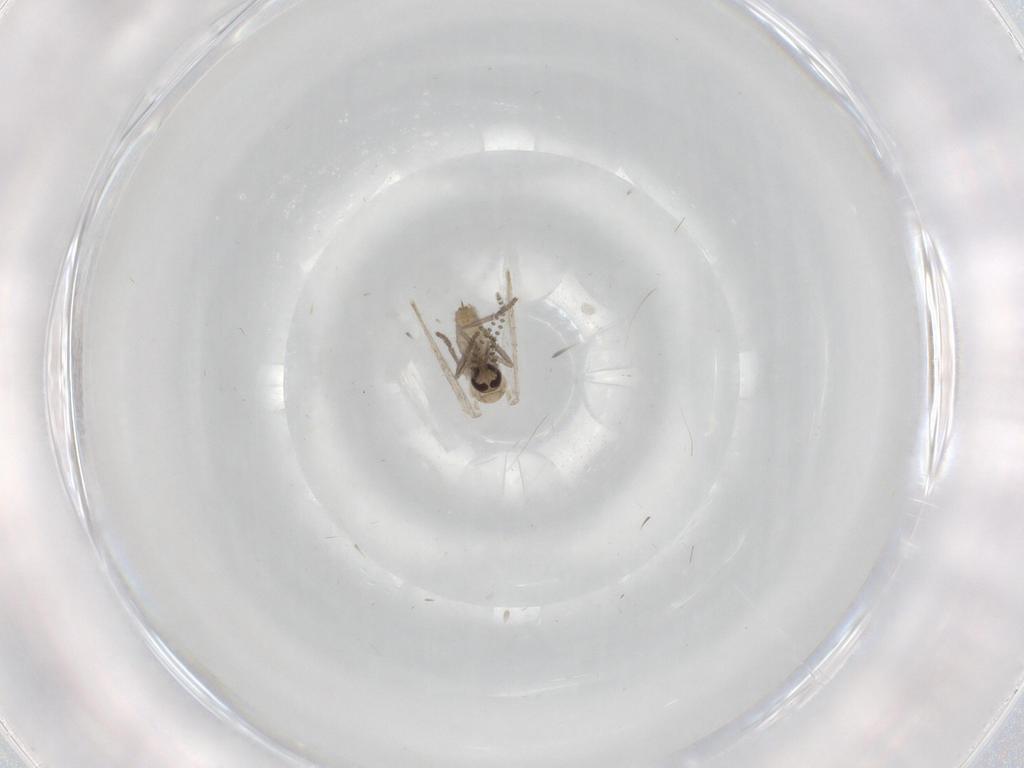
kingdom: Animalia
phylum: Arthropoda
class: Insecta
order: Diptera
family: Psychodidae
